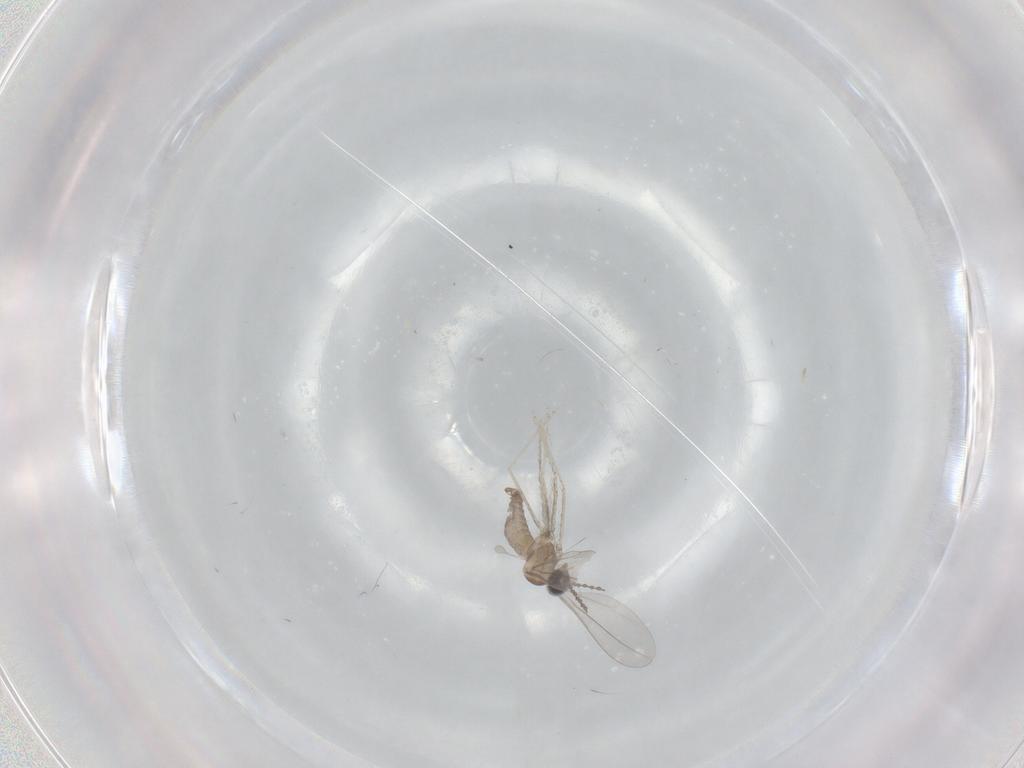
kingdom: Animalia
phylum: Arthropoda
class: Insecta
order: Diptera
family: Cecidomyiidae
